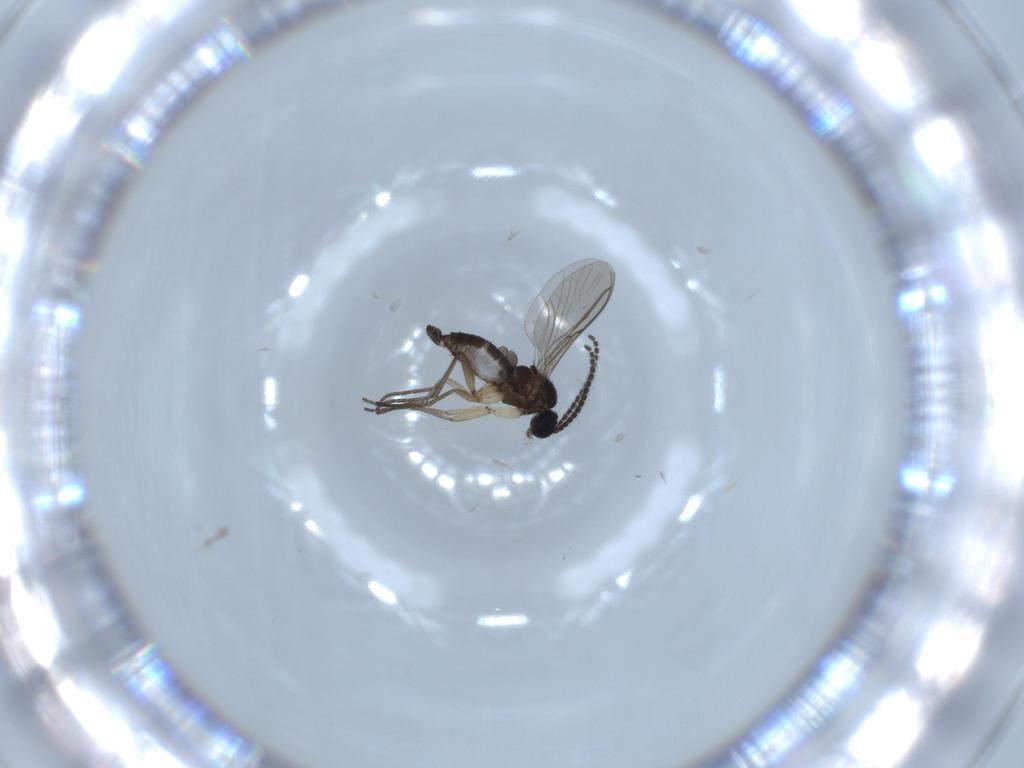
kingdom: Animalia
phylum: Arthropoda
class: Insecta
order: Diptera
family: Sciaridae
